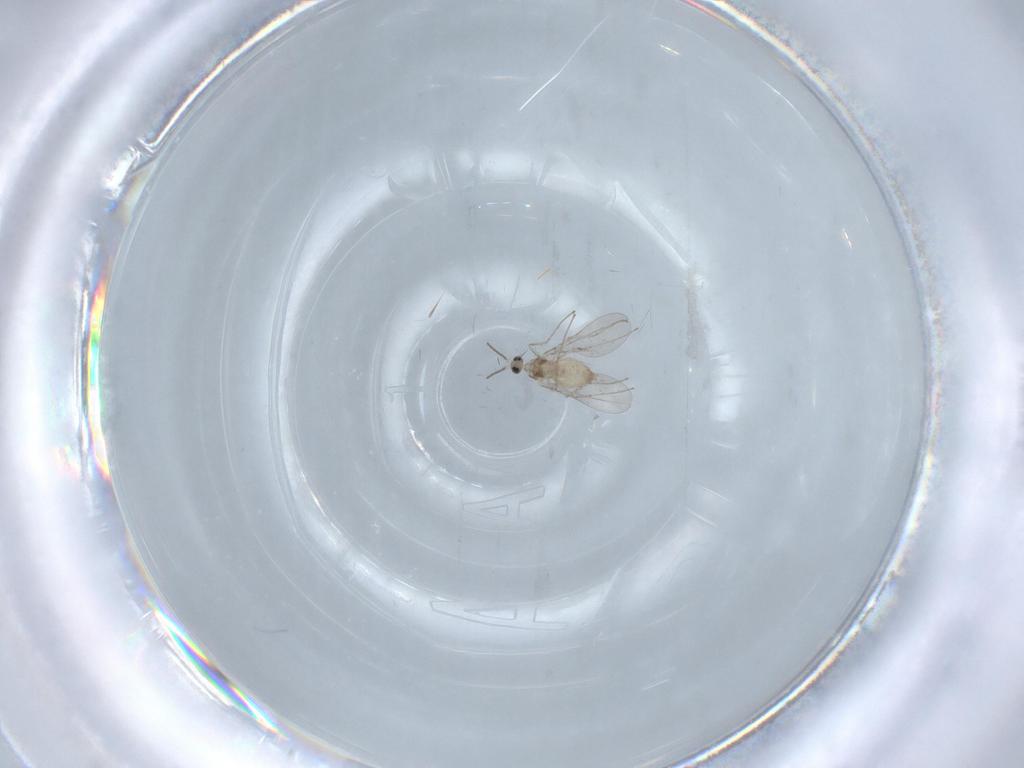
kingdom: Animalia
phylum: Arthropoda
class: Insecta
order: Diptera
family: Cecidomyiidae
